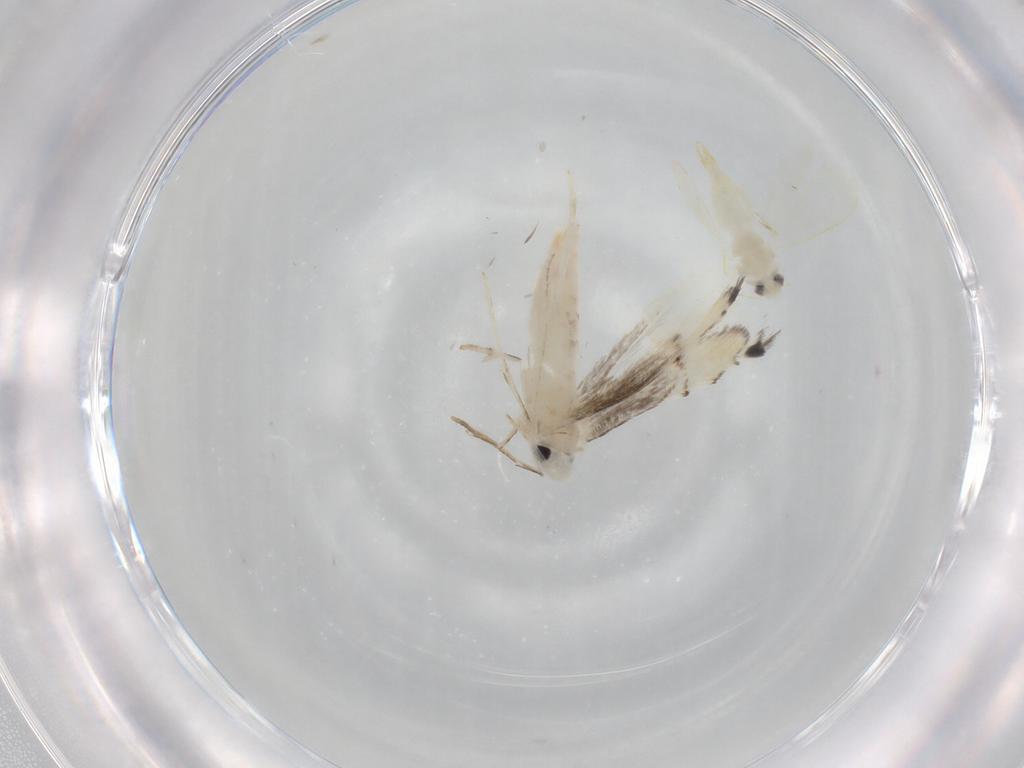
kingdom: Animalia
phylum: Arthropoda
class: Insecta
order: Lepidoptera
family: Gracillariidae
